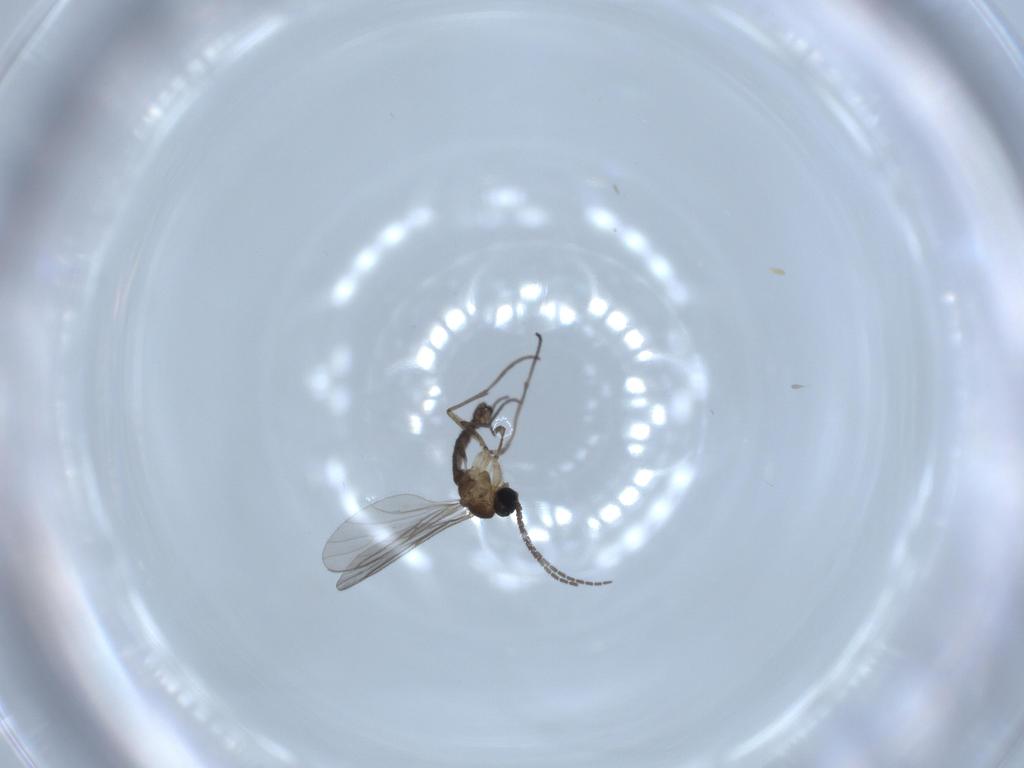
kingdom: Animalia
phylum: Arthropoda
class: Insecta
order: Diptera
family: Sciaridae
